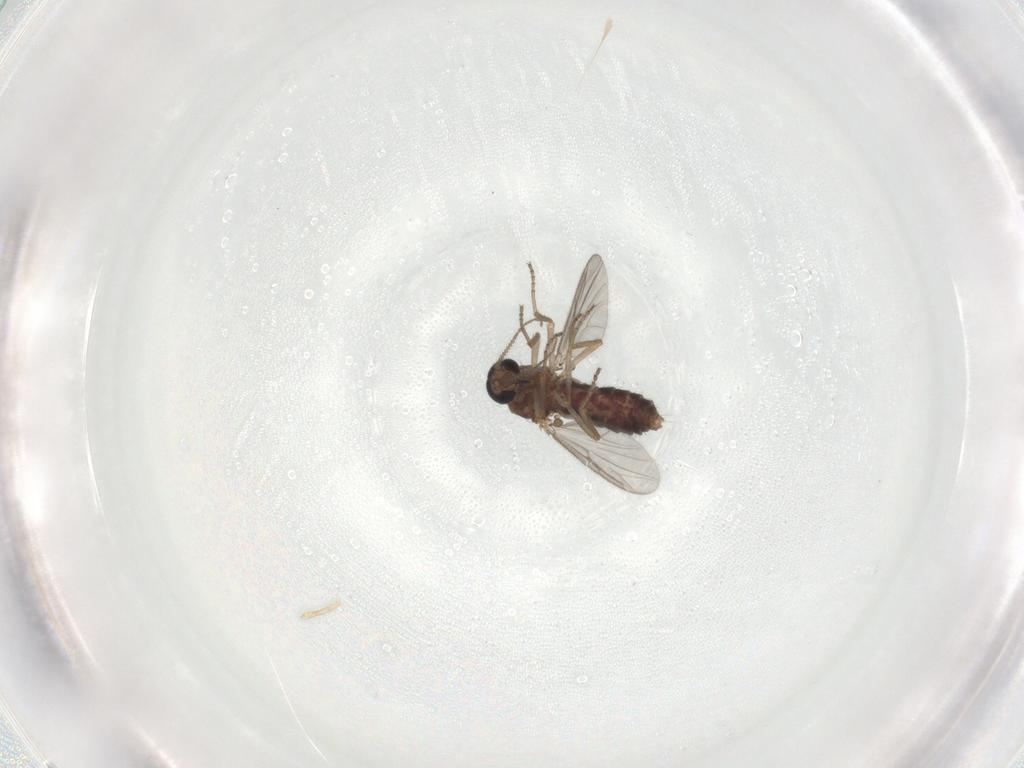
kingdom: Animalia
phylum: Arthropoda
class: Insecta
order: Diptera
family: Ceratopogonidae
